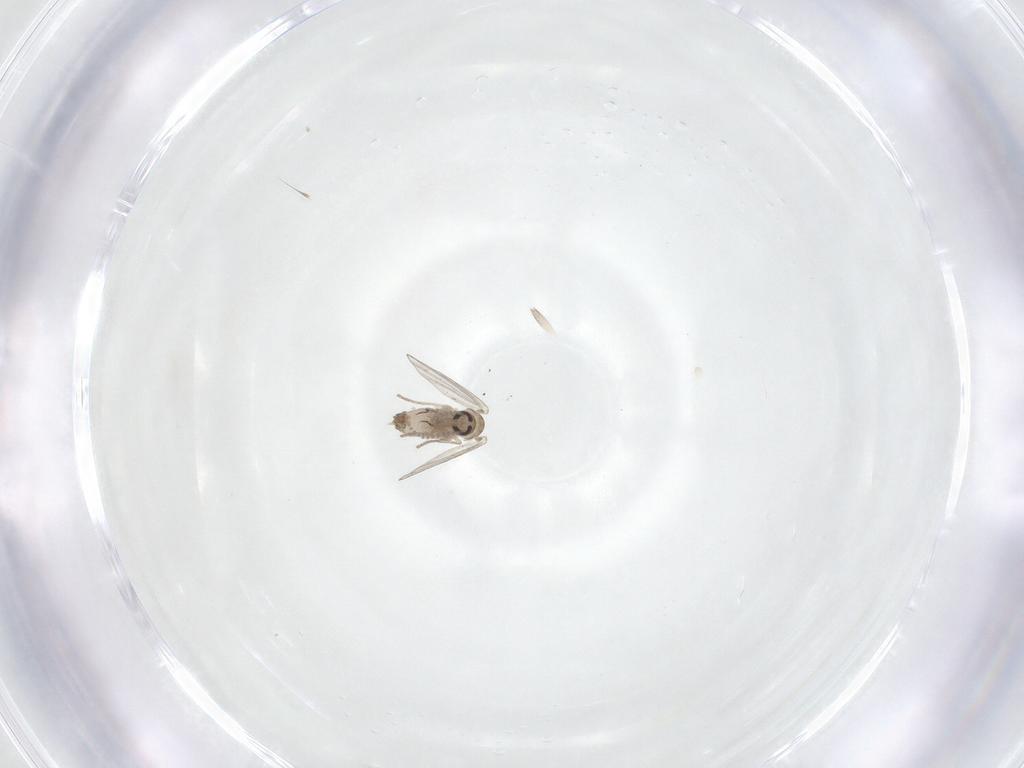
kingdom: Animalia
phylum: Arthropoda
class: Insecta
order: Diptera
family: Psychodidae
